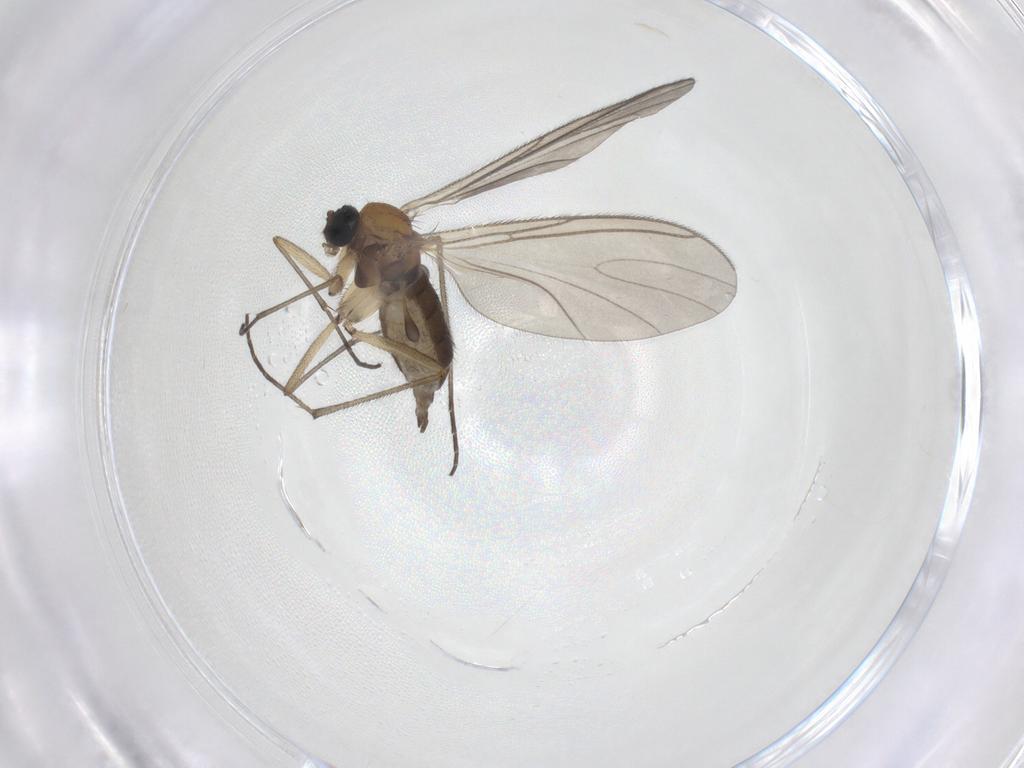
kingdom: Animalia
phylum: Arthropoda
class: Insecta
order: Diptera
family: Sciaridae
